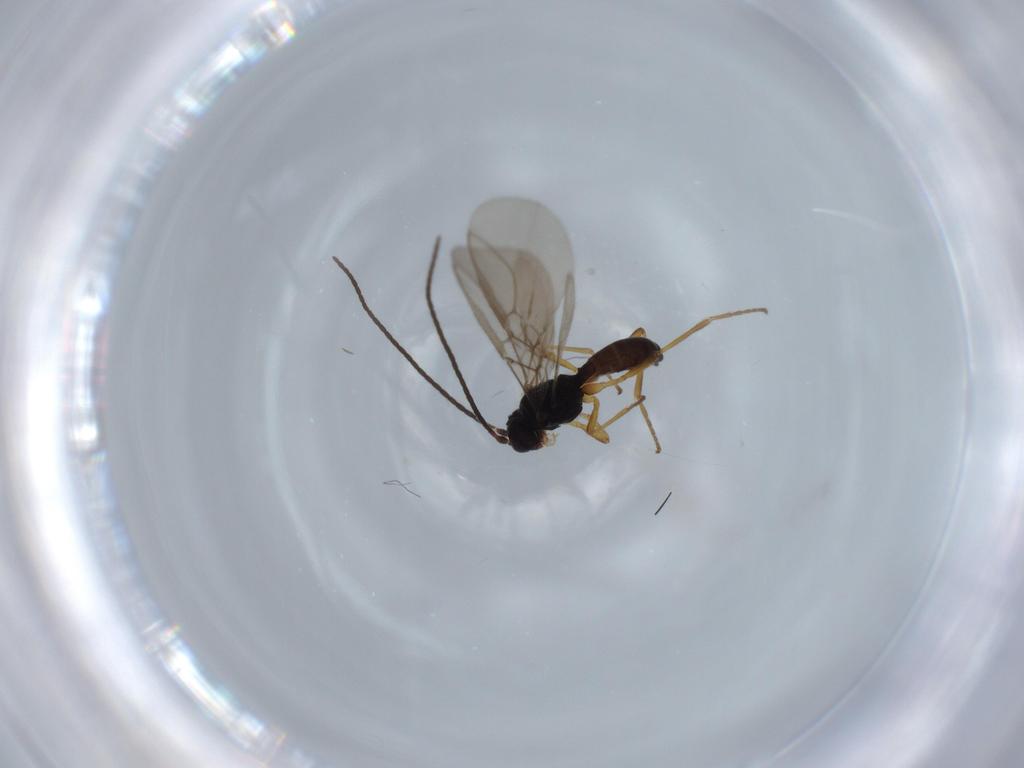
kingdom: Animalia
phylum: Arthropoda
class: Insecta
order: Hymenoptera
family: Braconidae
